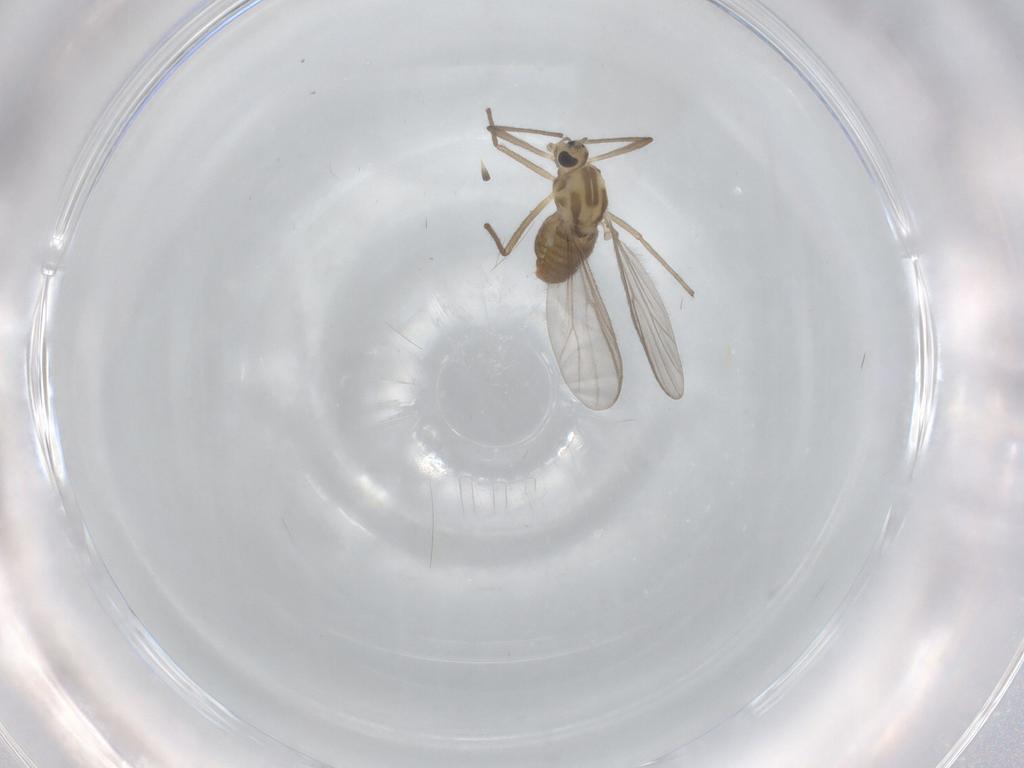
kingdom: Animalia
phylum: Arthropoda
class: Insecta
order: Diptera
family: Chironomidae
